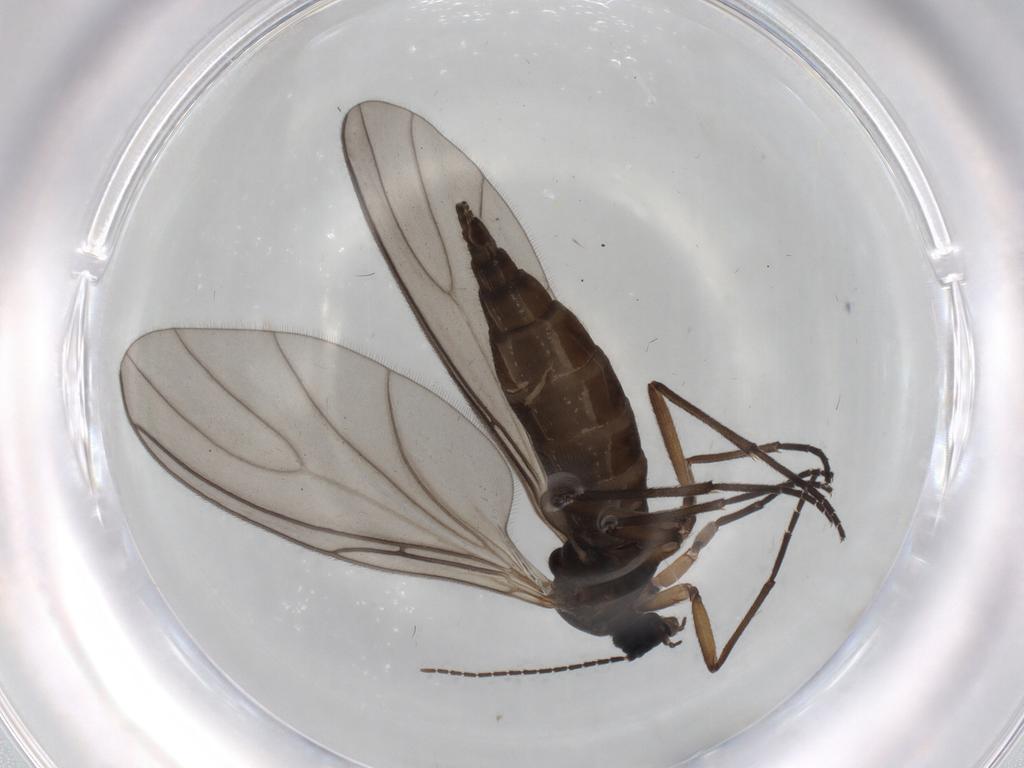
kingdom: Animalia
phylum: Arthropoda
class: Insecta
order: Diptera
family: Sciaridae
